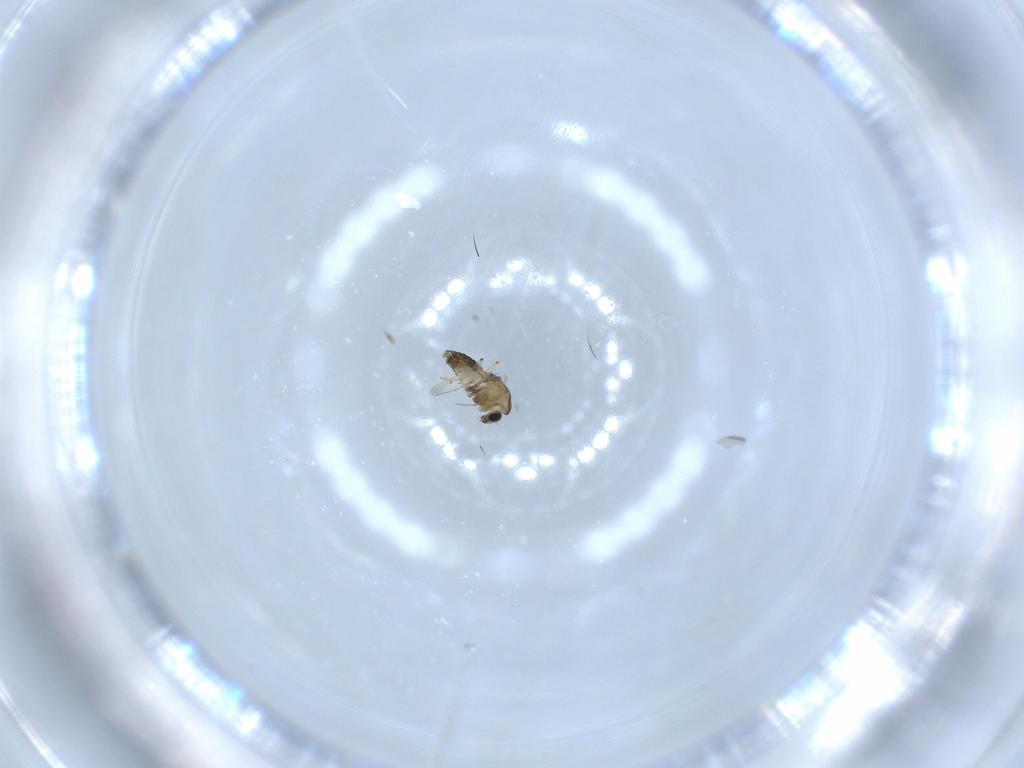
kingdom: Animalia
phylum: Arthropoda
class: Insecta
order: Diptera
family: Chironomidae
